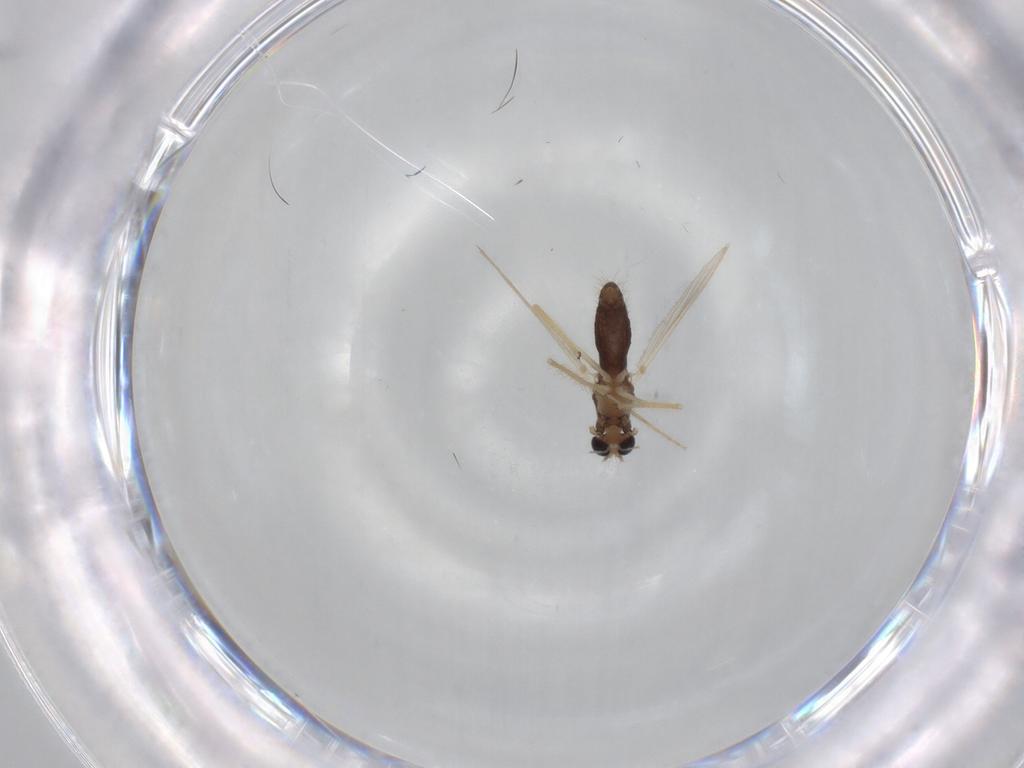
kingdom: Animalia
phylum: Arthropoda
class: Insecta
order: Diptera
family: Chironomidae
